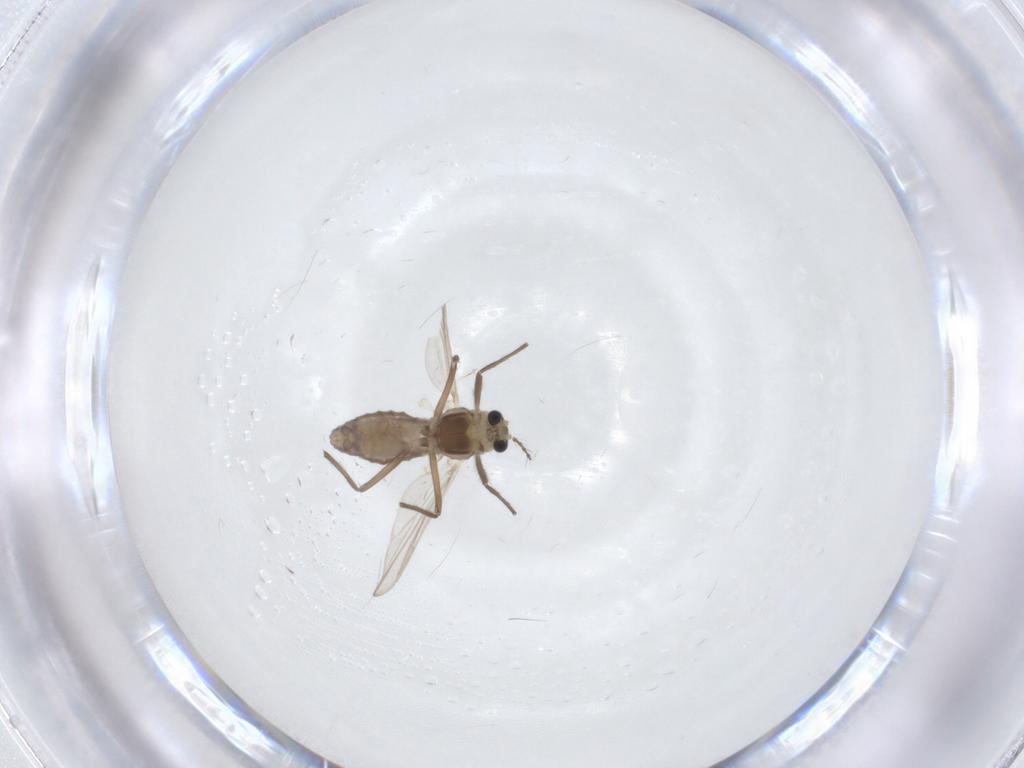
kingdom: Animalia
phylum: Arthropoda
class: Insecta
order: Diptera
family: Chironomidae
